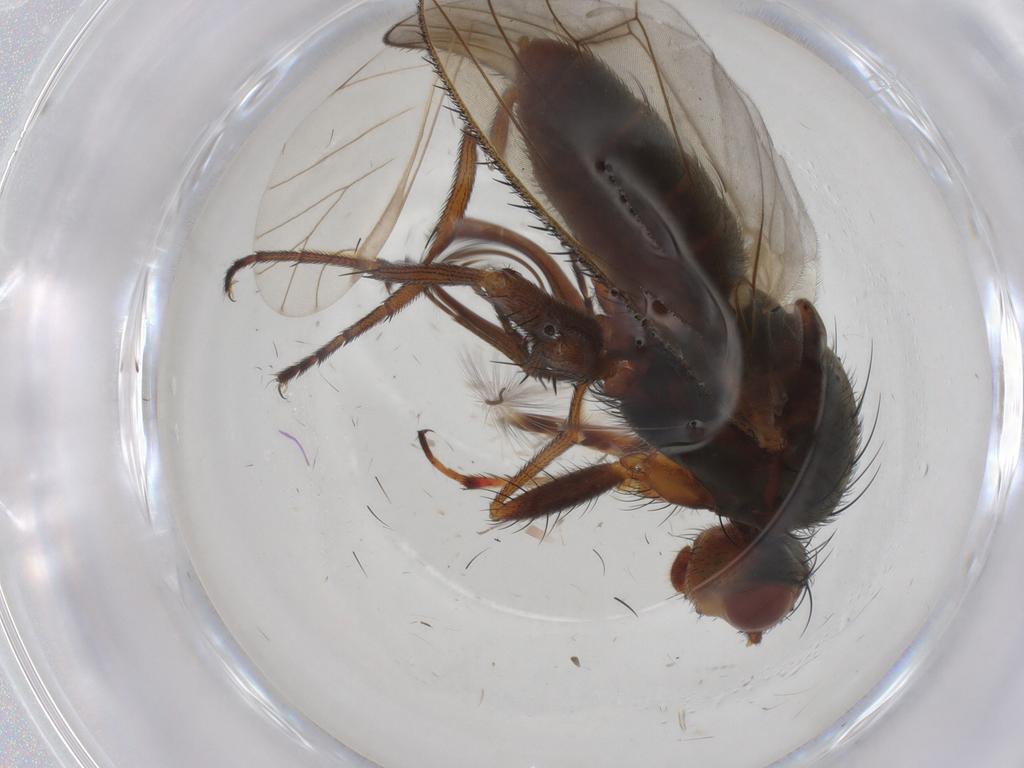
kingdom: Animalia
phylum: Arthropoda
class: Insecta
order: Diptera
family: Heleomyzidae
